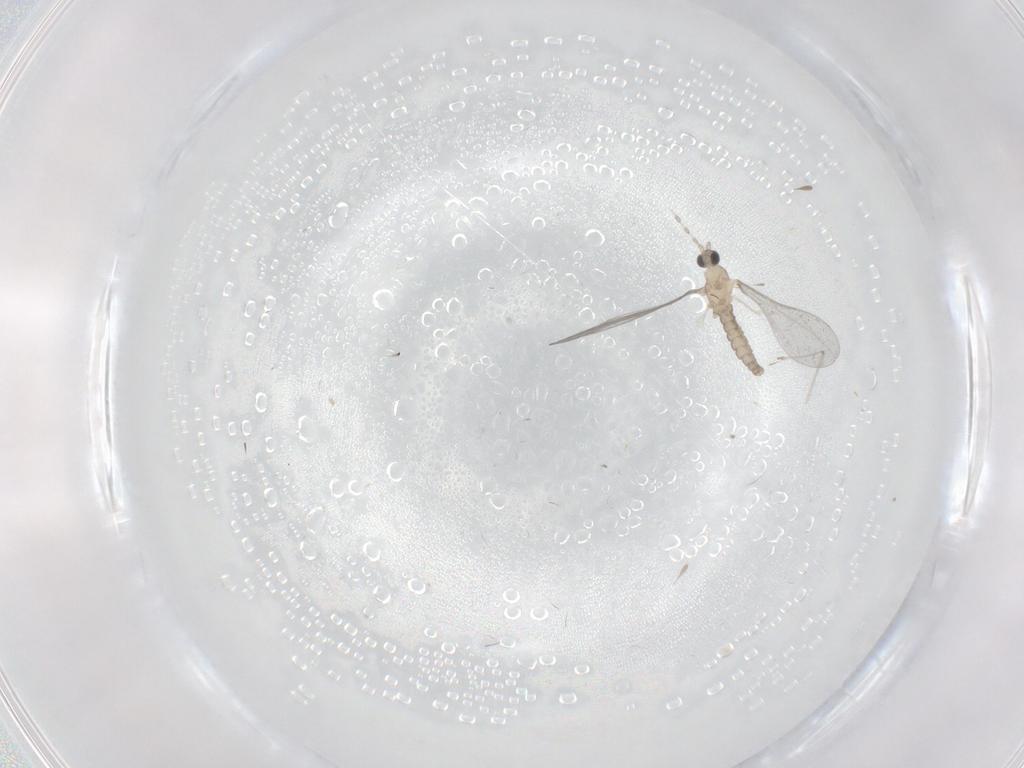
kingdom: Animalia
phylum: Arthropoda
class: Insecta
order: Diptera
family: Cecidomyiidae
